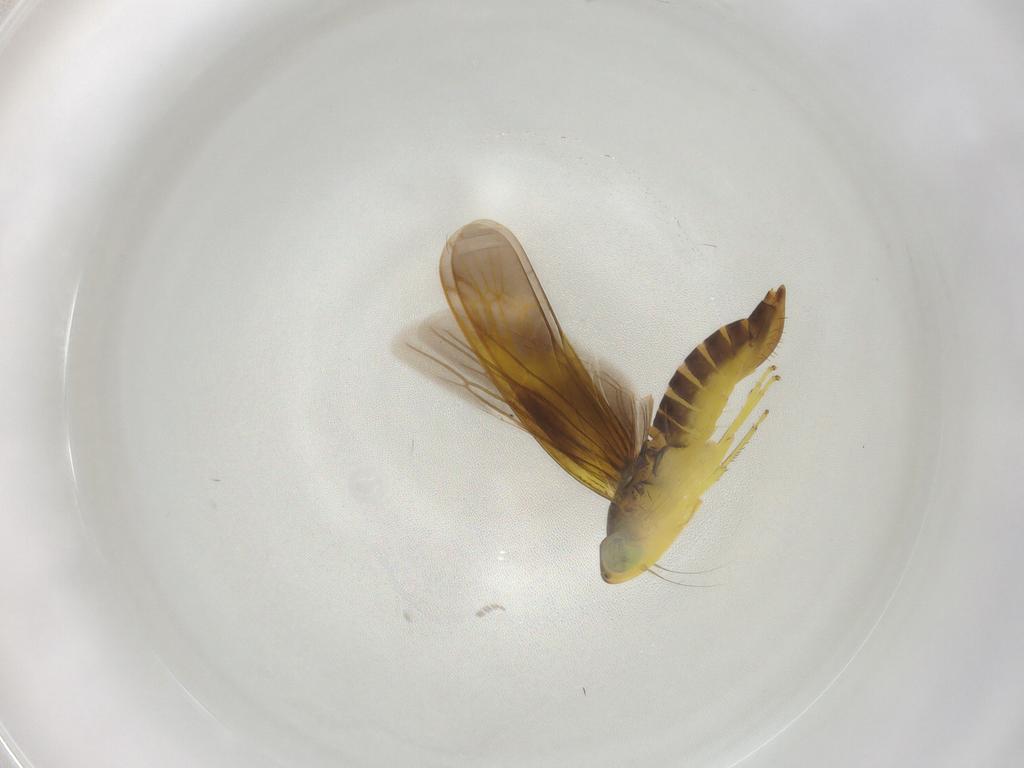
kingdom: Animalia
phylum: Arthropoda
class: Insecta
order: Hemiptera
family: Cicadellidae
